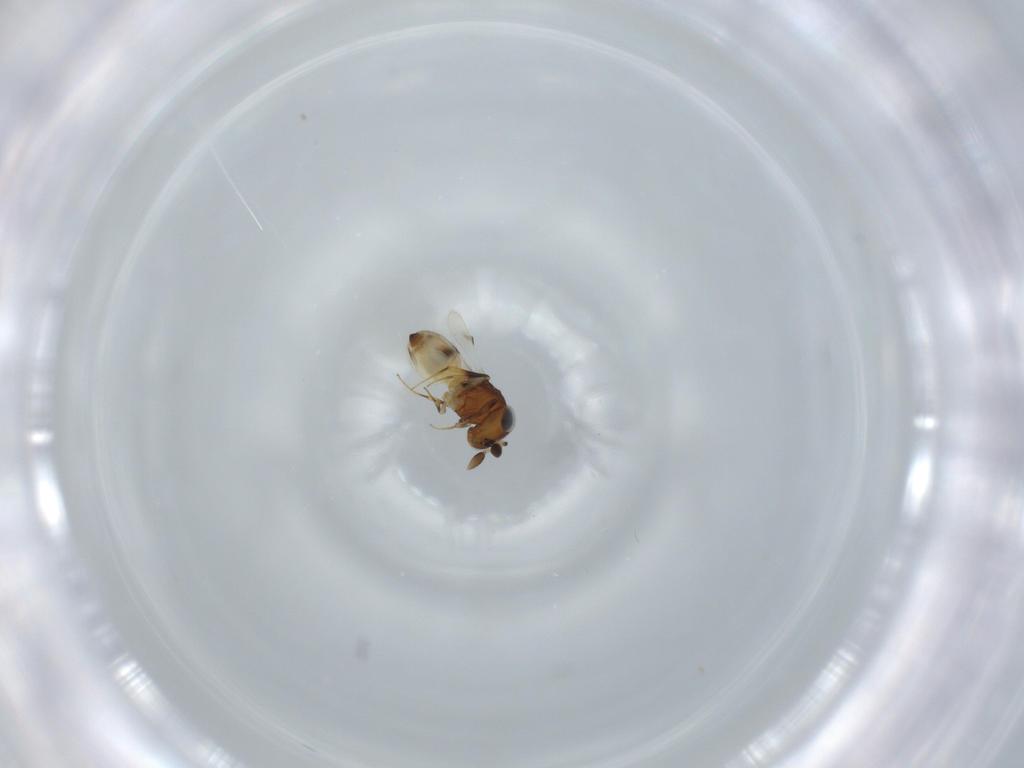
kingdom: Animalia
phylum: Arthropoda
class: Arachnida
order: Araneae
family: Pholcidae
